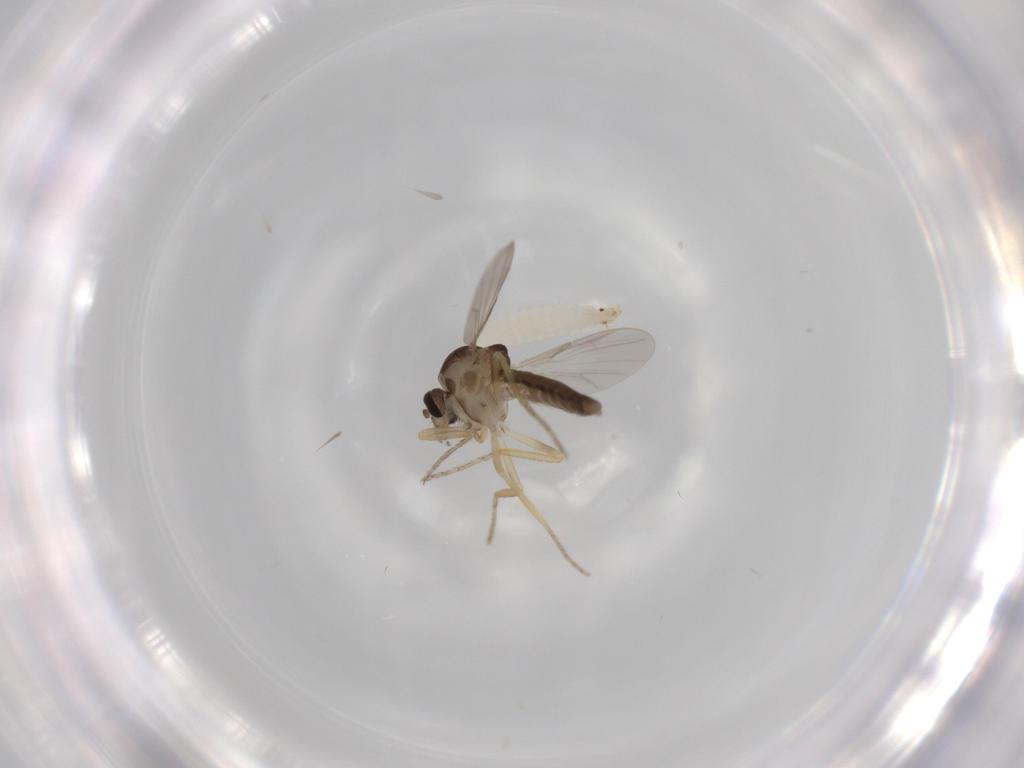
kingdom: Animalia
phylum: Arthropoda
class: Insecta
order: Diptera
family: Ceratopogonidae
